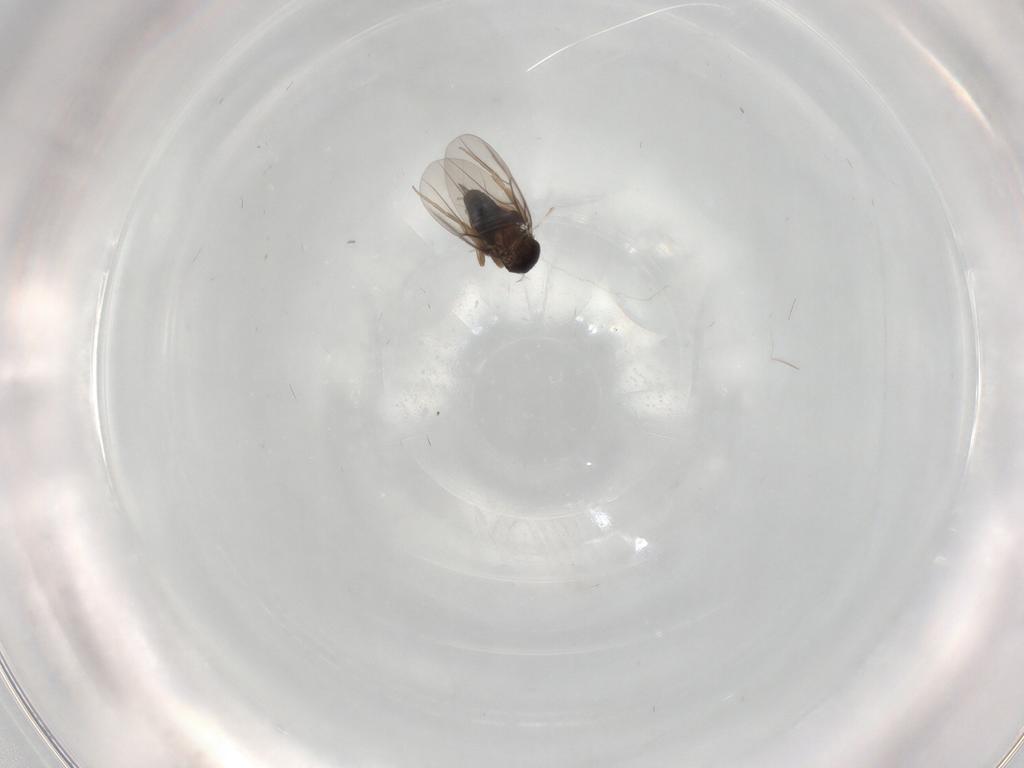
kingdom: Animalia
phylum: Arthropoda
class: Insecta
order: Diptera
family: Phoridae
